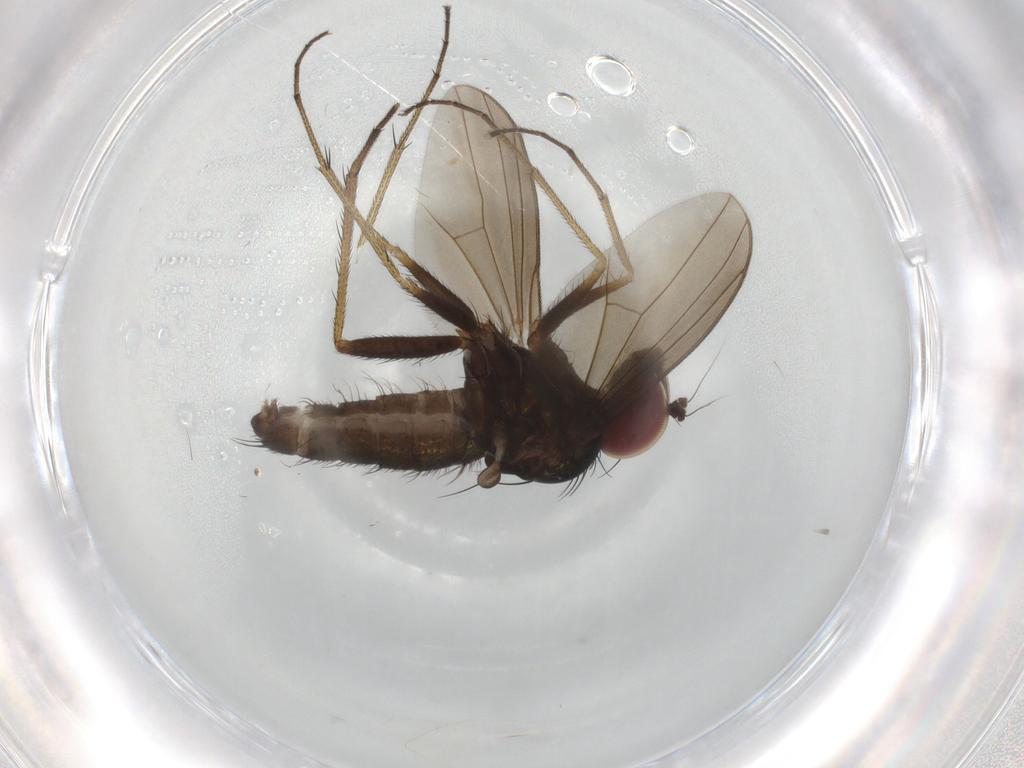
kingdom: Animalia
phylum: Arthropoda
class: Insecta
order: Diptera
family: Dolichopodidae
